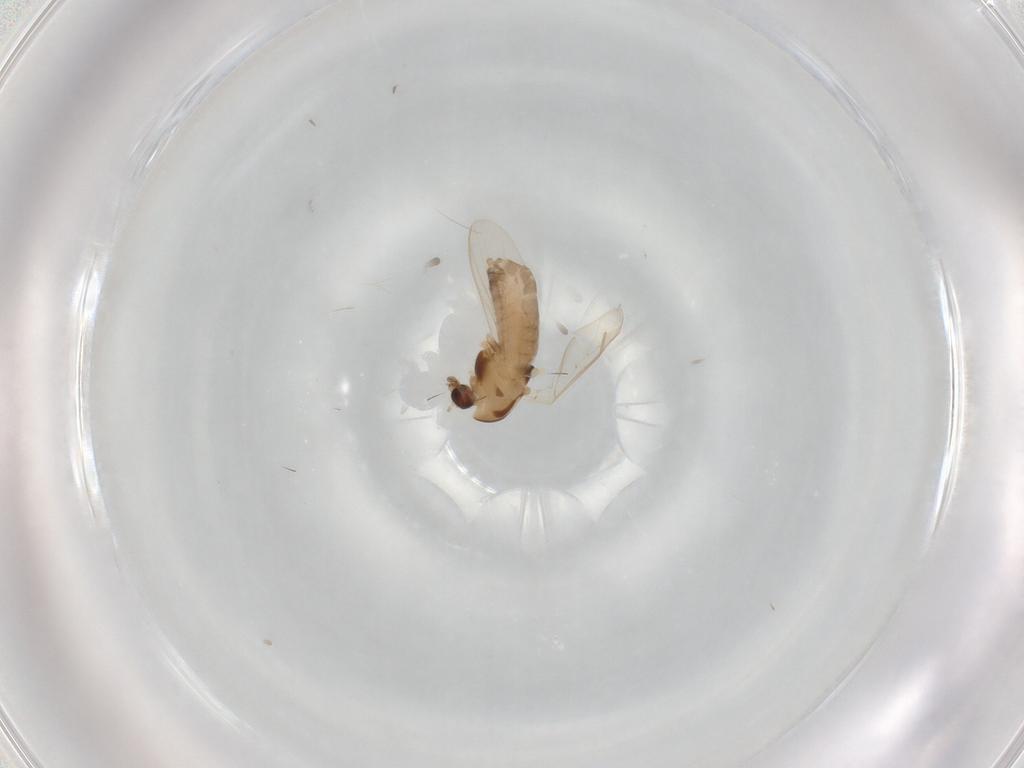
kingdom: Animalia
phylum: Arthropoda
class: Insecta
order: Diptera
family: Chironomidae
